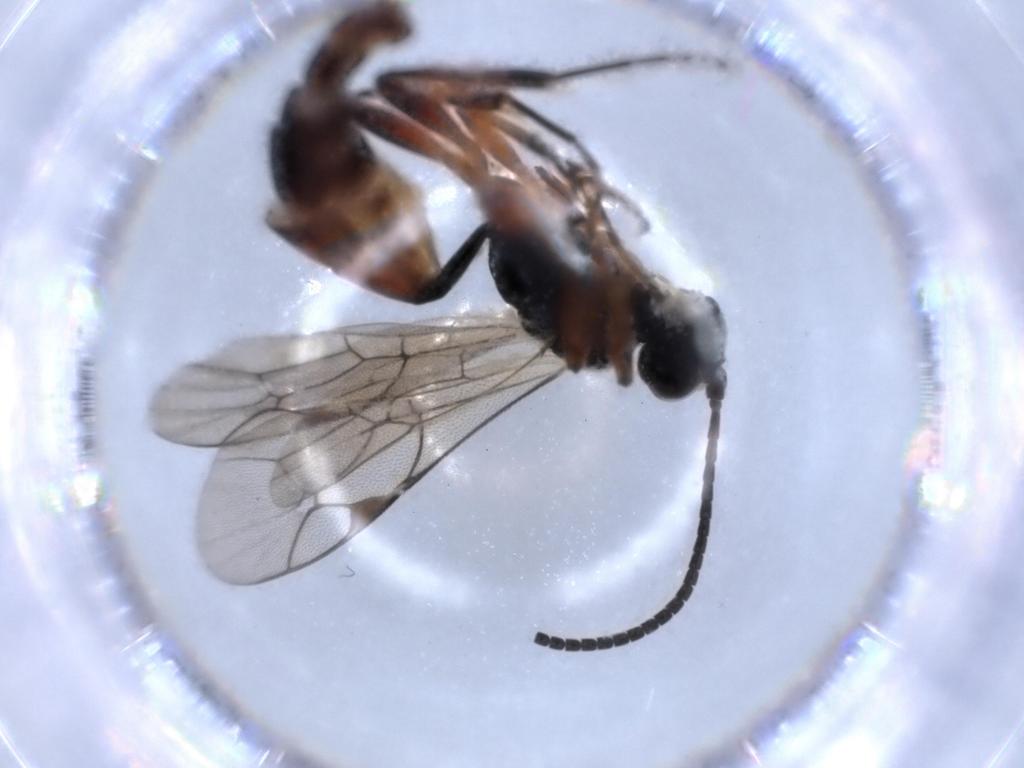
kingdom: Animalia
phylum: Arthropoda
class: Insecta
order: Hymenoptera
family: Ichneumonidae
